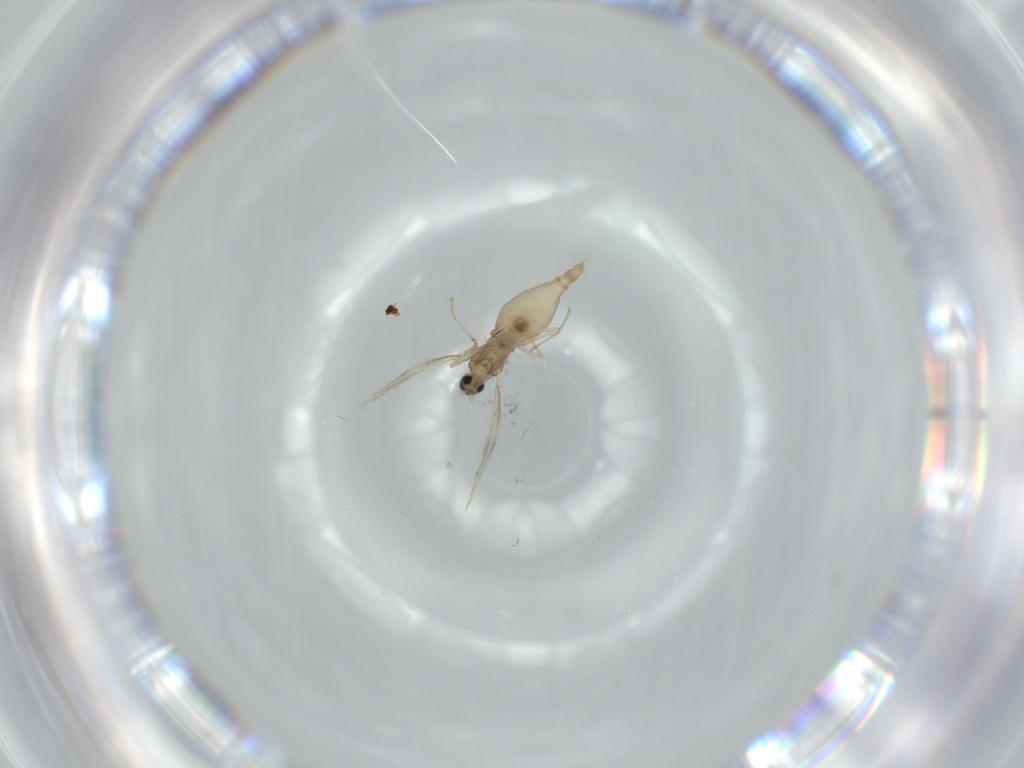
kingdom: Animalia
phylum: Arthropoda
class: Insecta
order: Diptera
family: Cecidomyiidae
